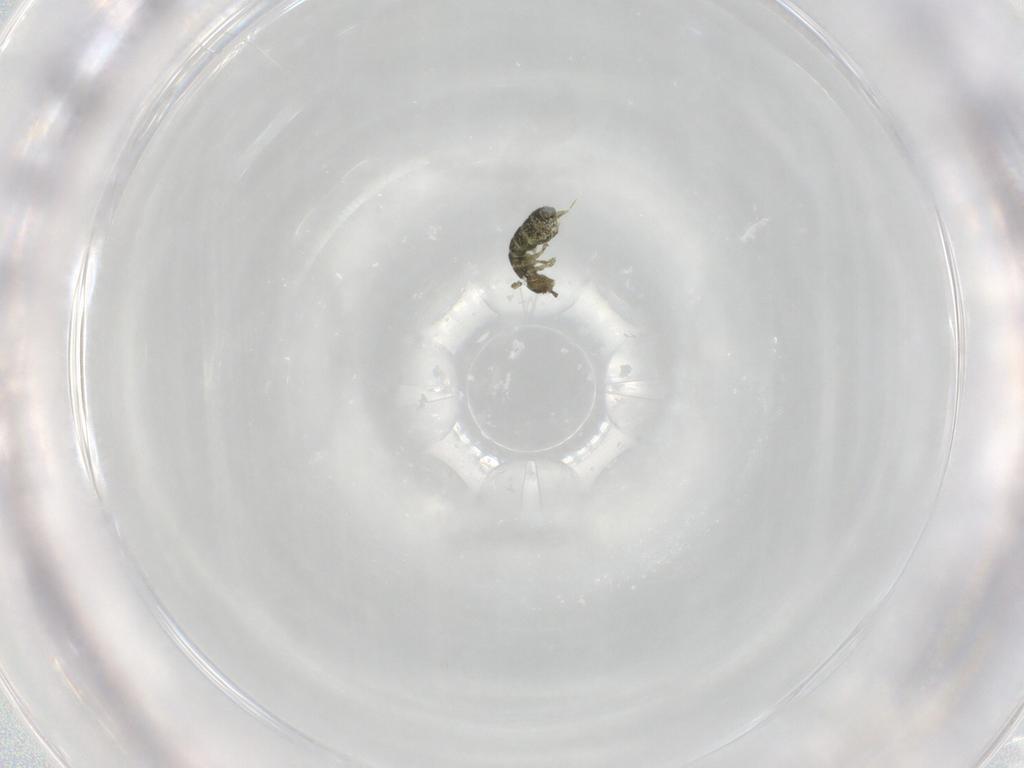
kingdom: Animalia
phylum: Arthropoda
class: Collembola
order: Entomobryomorpha
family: Isotomidae
